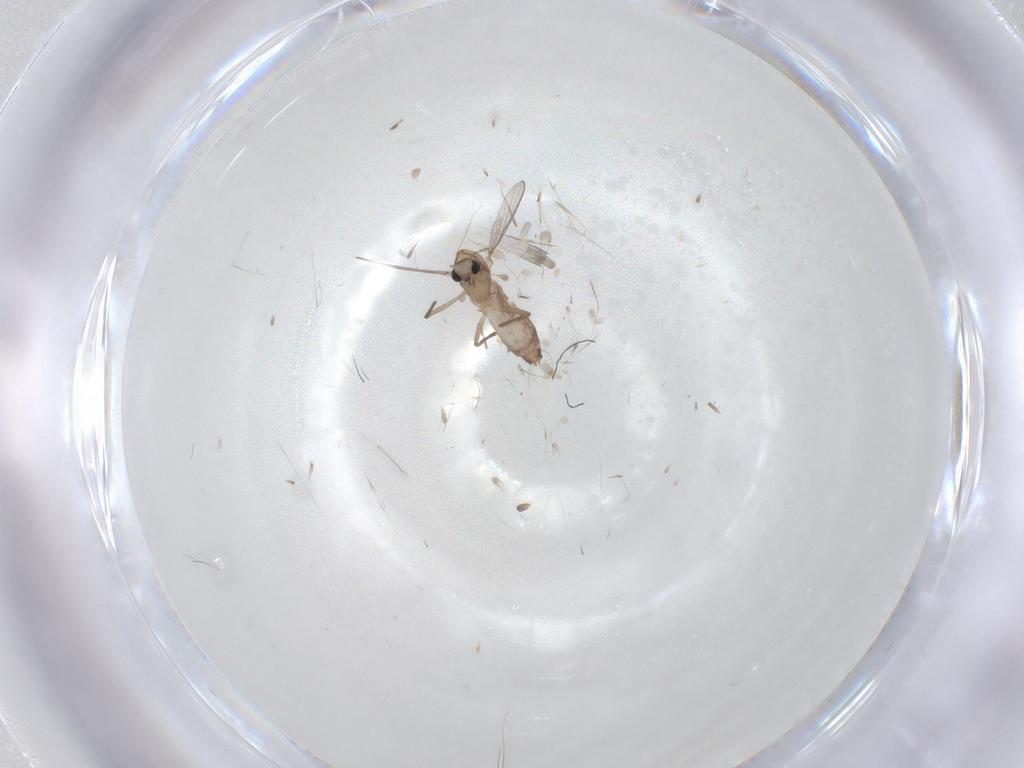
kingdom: Animalia
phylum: Arthropoda
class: Insecta
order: Diptera
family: Chironomidae
